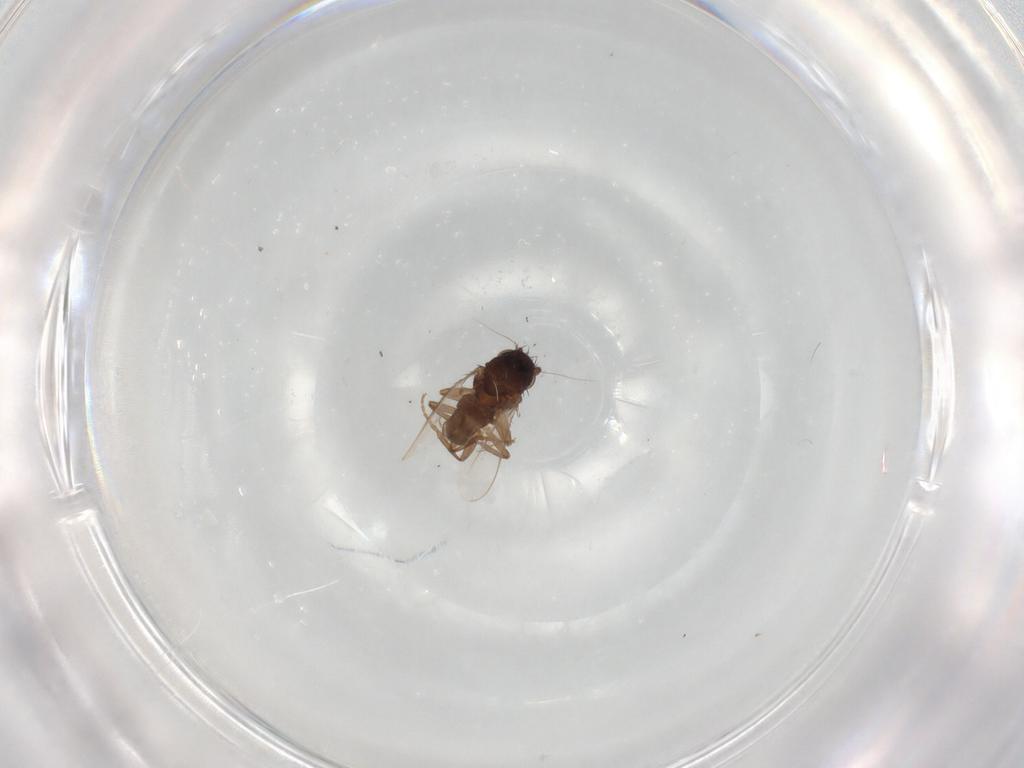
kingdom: Animalia
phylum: Arthropoda
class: Insecta
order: Diptera
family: Sphaeroceridae
